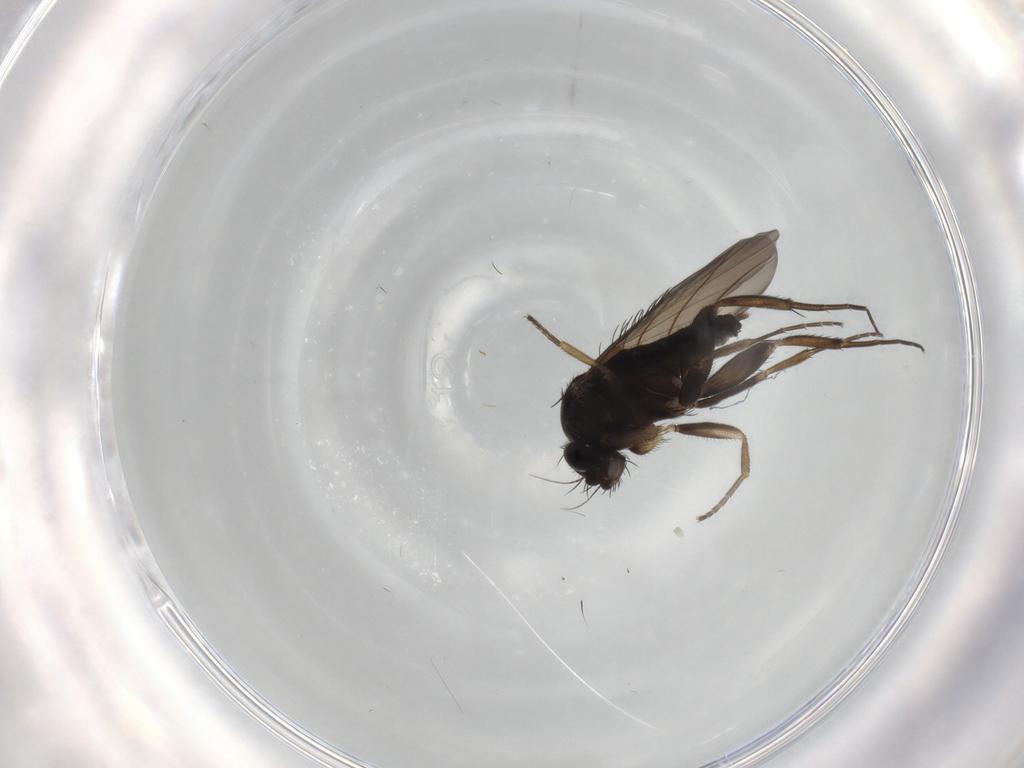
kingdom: Animalia
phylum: Arthropoda
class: Insecta
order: Diptera
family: Phoridae
